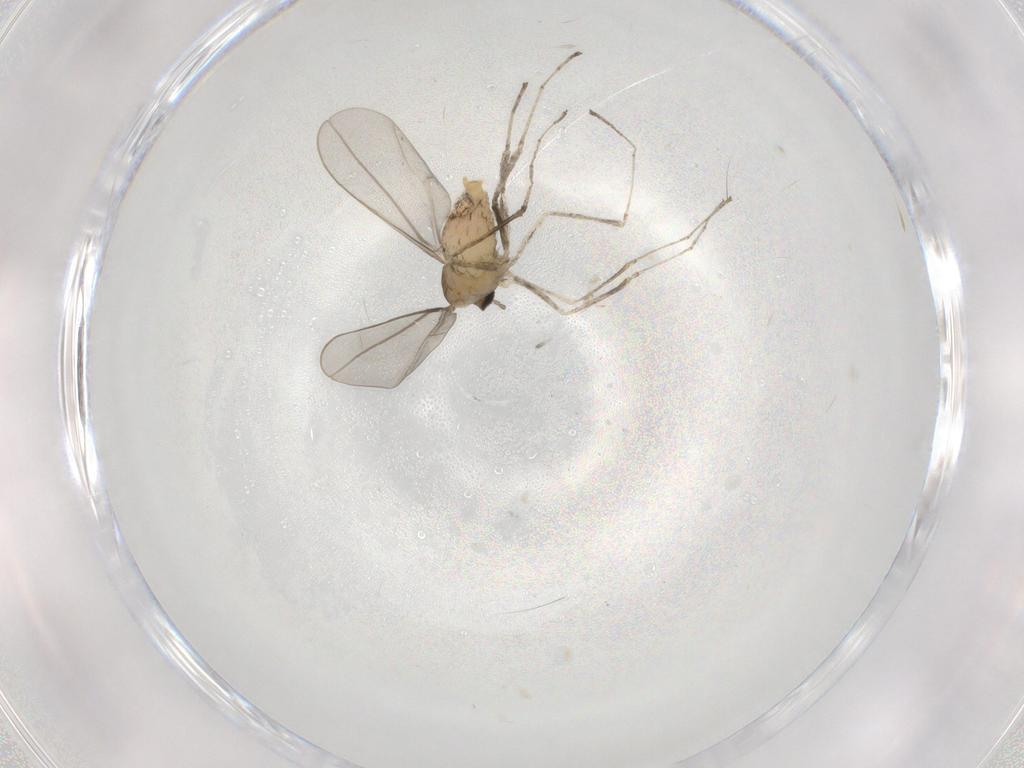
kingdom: Animalia
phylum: Arthropoda
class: Insecta
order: Diptera
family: Cecidomyiidae
